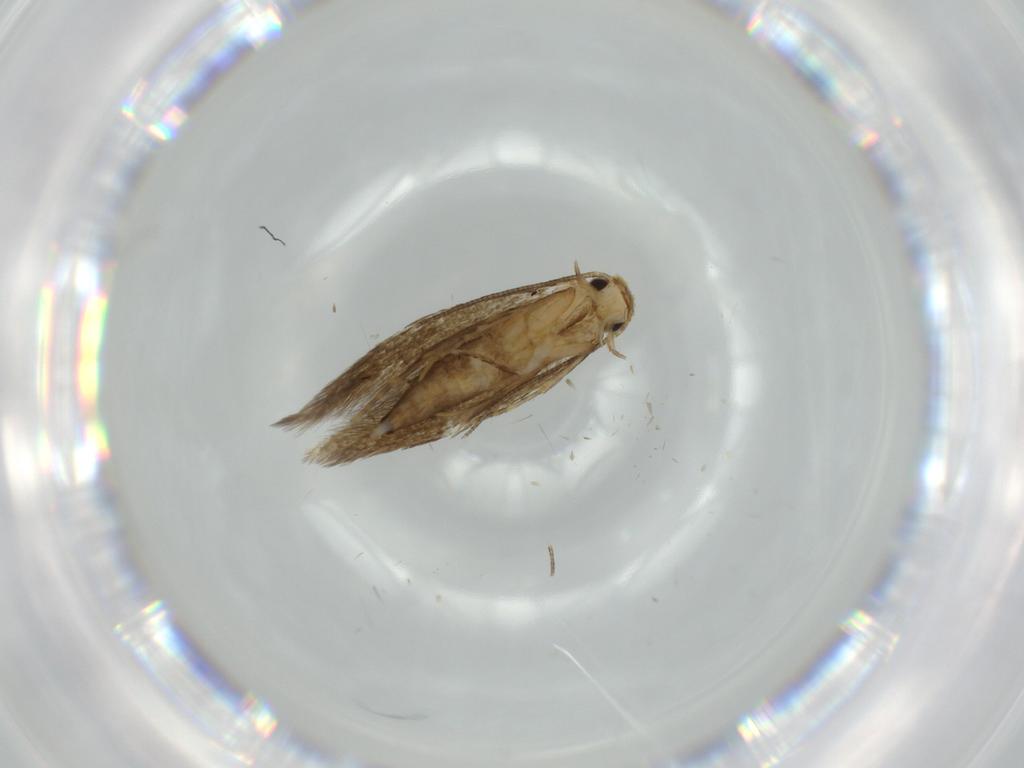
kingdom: Animalia
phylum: Arthropoda
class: Insecta
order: Lepidoptera
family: Tineidae
